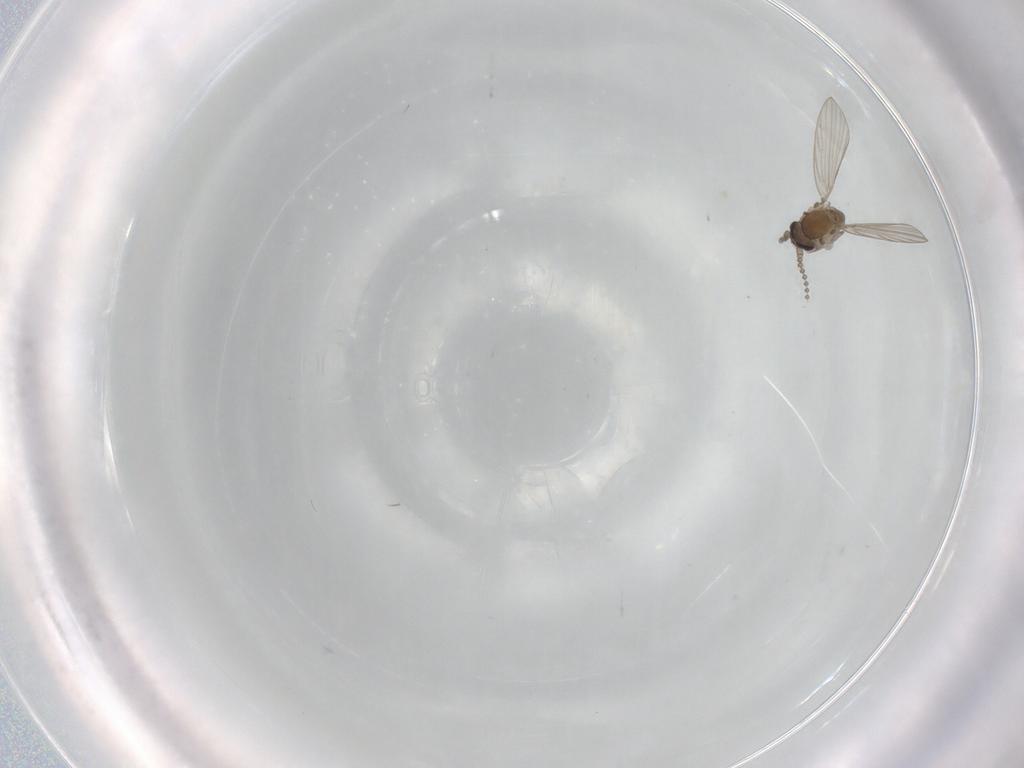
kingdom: Animalia
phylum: Arthropoda
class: Insecta
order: Diptera
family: Psychodidae
